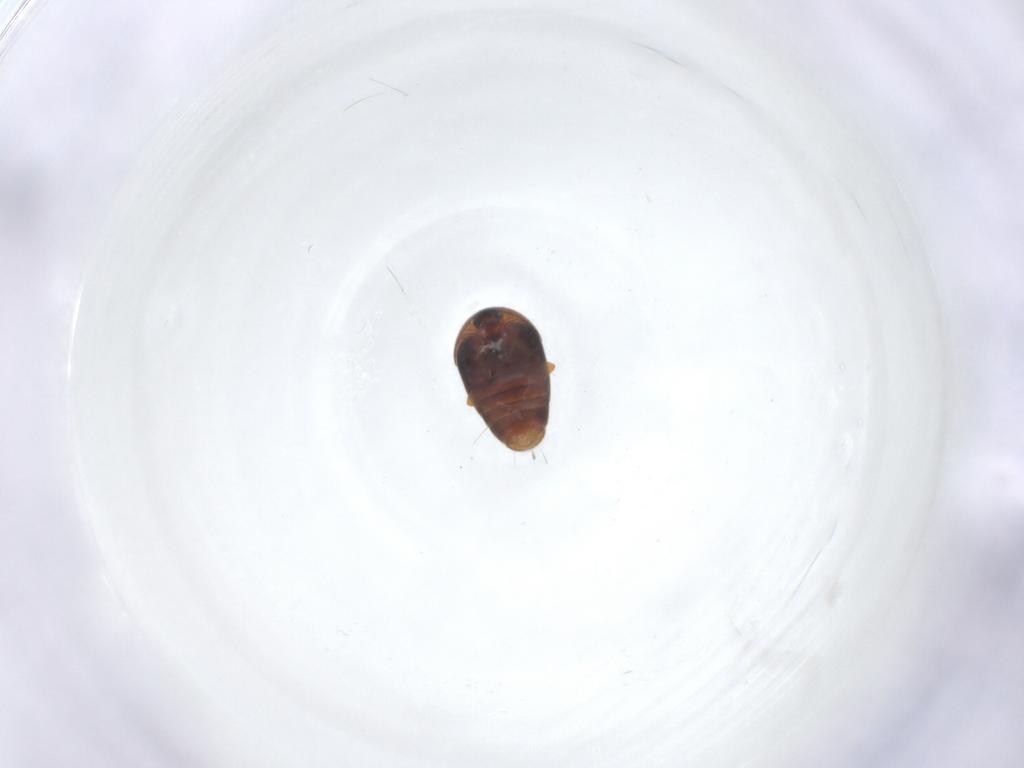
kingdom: Animalia
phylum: Arthropoda
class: Insecta
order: Coleoptera
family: Corylophidae
